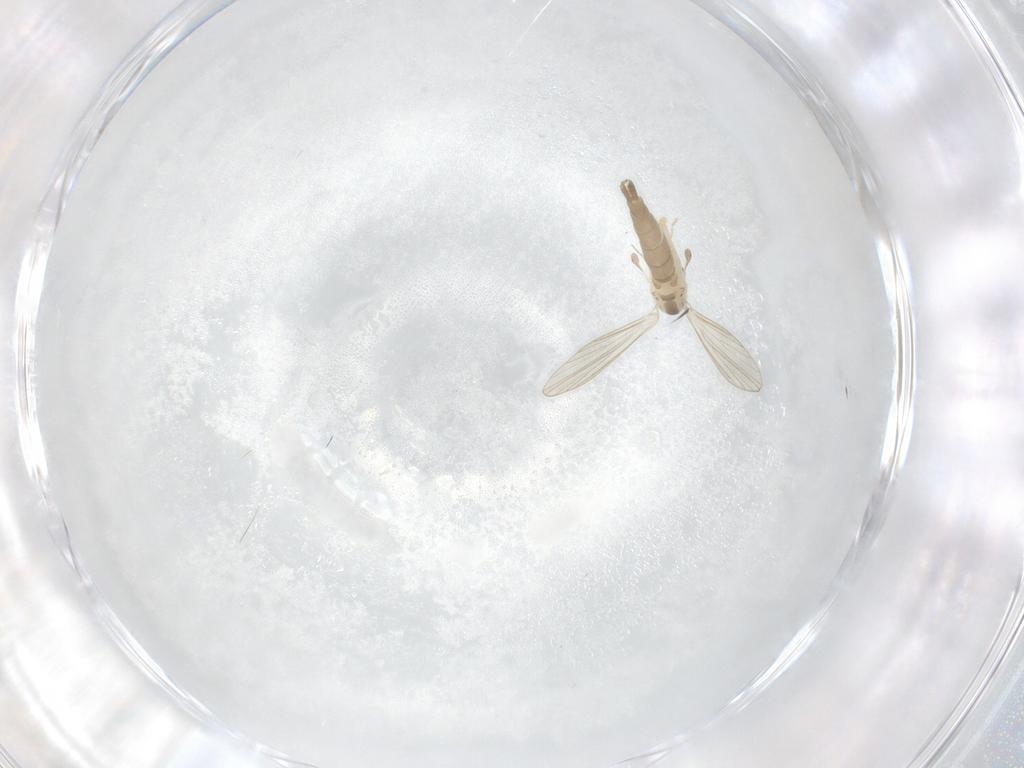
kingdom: Animalia
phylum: Arthropoda
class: Insecta
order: Diptera
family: Psychodidae
